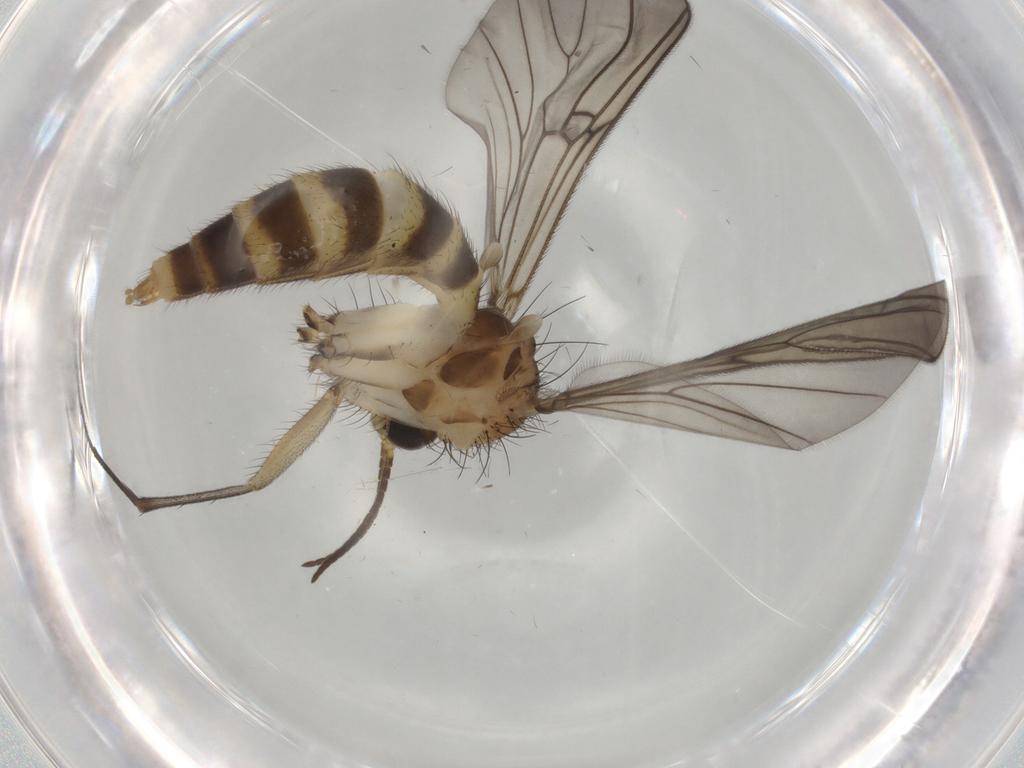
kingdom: Animalia
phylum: Arthropoda
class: Insecta
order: Diptera
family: Mycetophilidae
